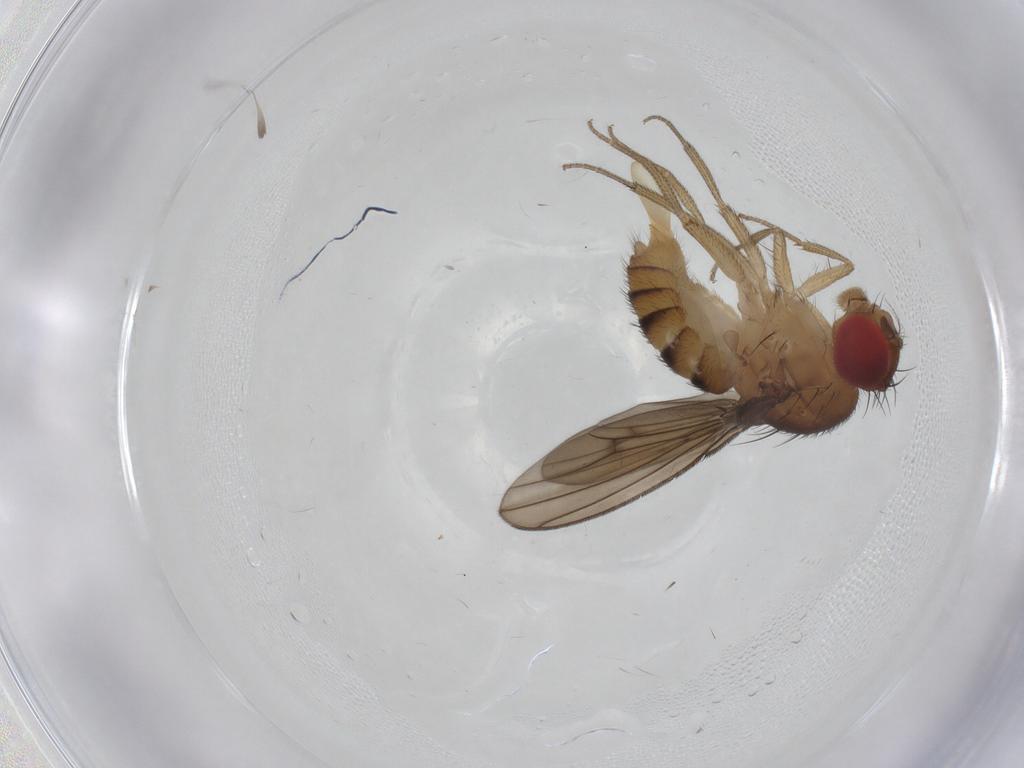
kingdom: Animalia
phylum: Arthropoda
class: Insecta
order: Diptera
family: Drosophilidae
